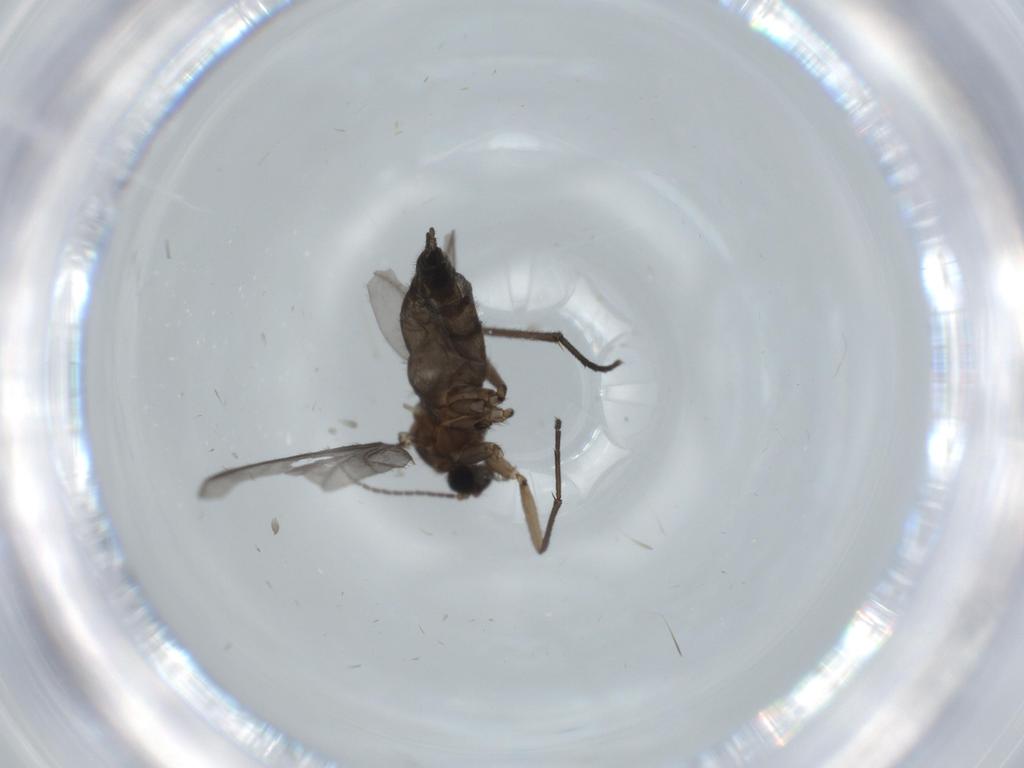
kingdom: Animalia
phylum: Arthropoda
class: Insecta
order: Diptera
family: Sciaridae
